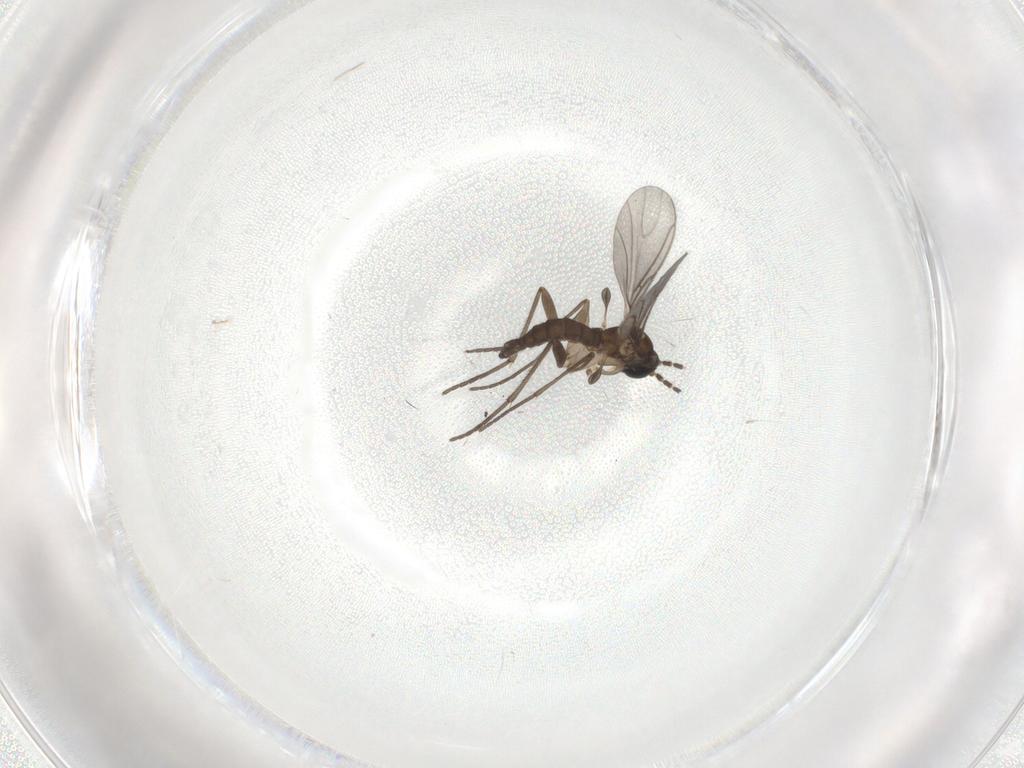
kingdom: Animalia
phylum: Arthropoda
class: Insecta
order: Diptera
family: Sciaridae
